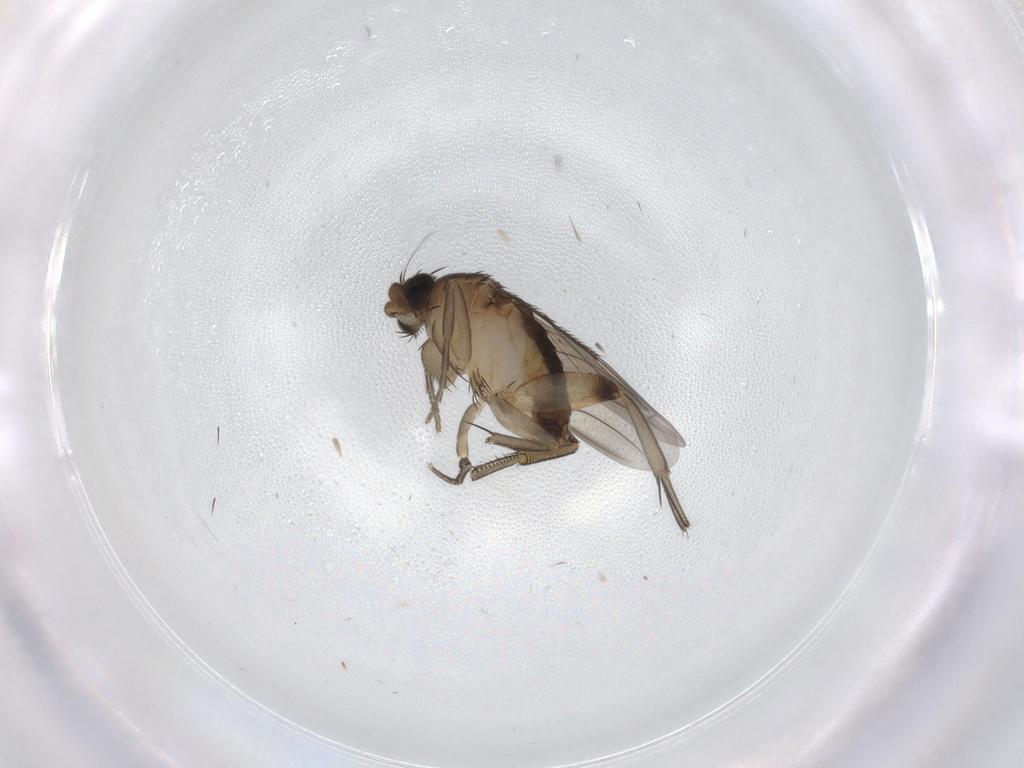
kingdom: Animalia
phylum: Arthropoda
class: Insecta
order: Diptera
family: Phoridae
